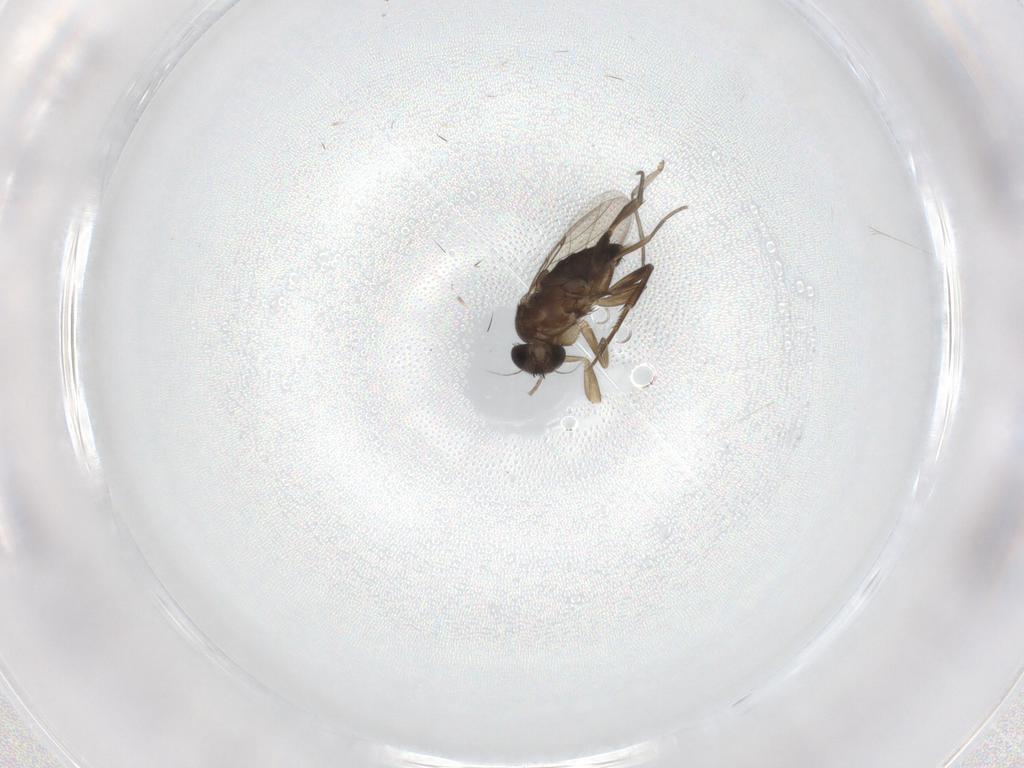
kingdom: Animalia
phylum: Arthropoda
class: Insecta
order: Diptera
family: Phoridae
